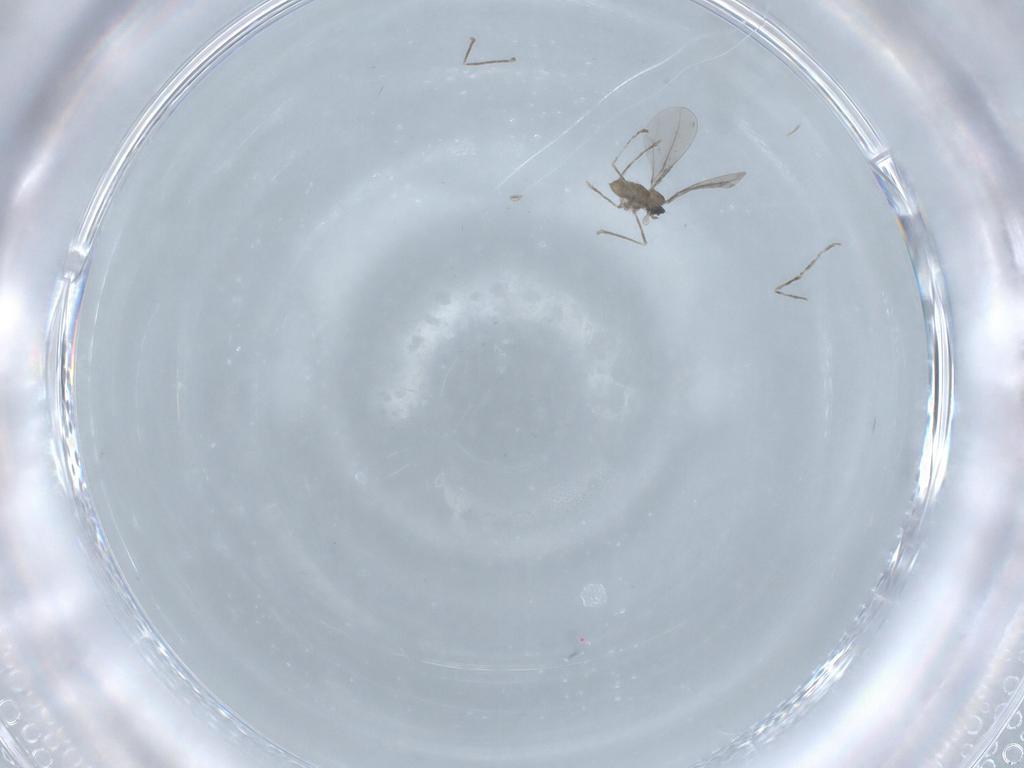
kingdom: Animalia
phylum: Arthropoda
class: Insecta
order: Diptera
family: Cecidomyiidae
